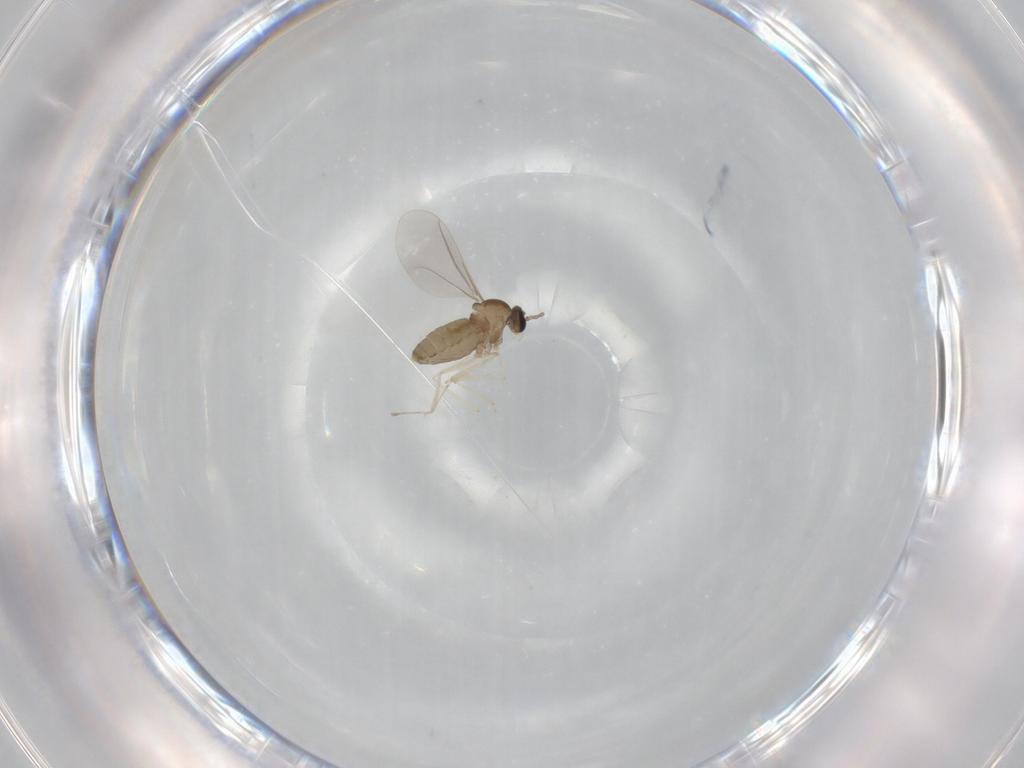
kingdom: Animalia
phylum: Arthropoda
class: Insecta
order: Diptera
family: Cecidomyiidae
